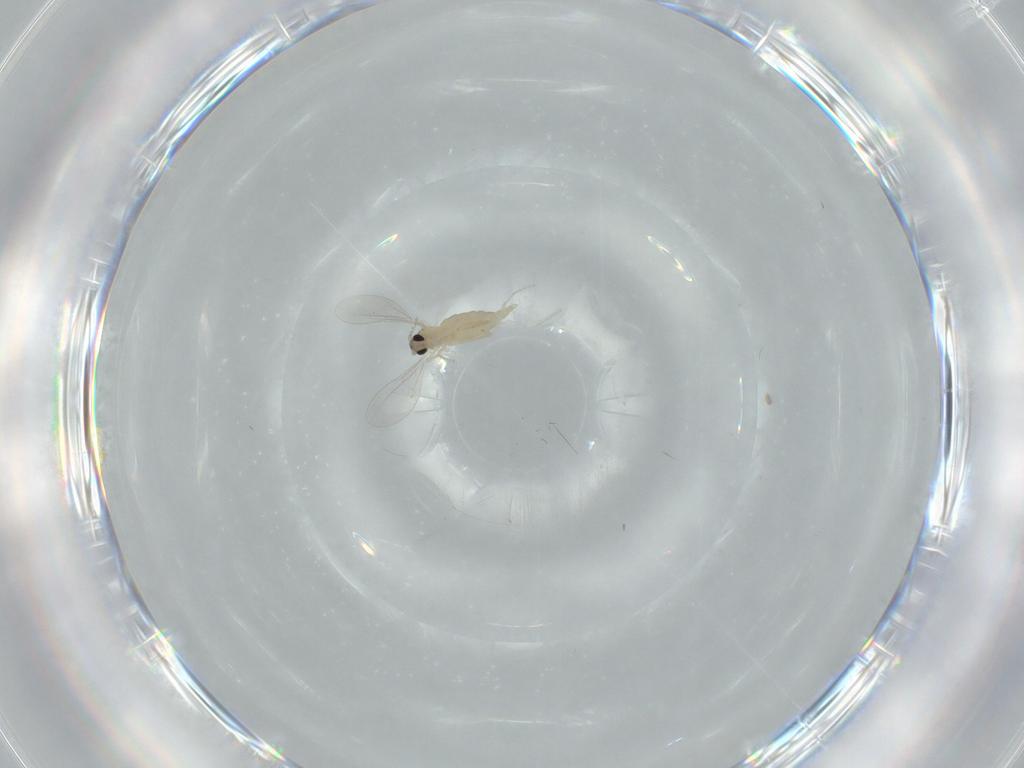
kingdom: Animalia
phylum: Arthropoda
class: Insecta
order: Diptera
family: Cecidomyiidae
